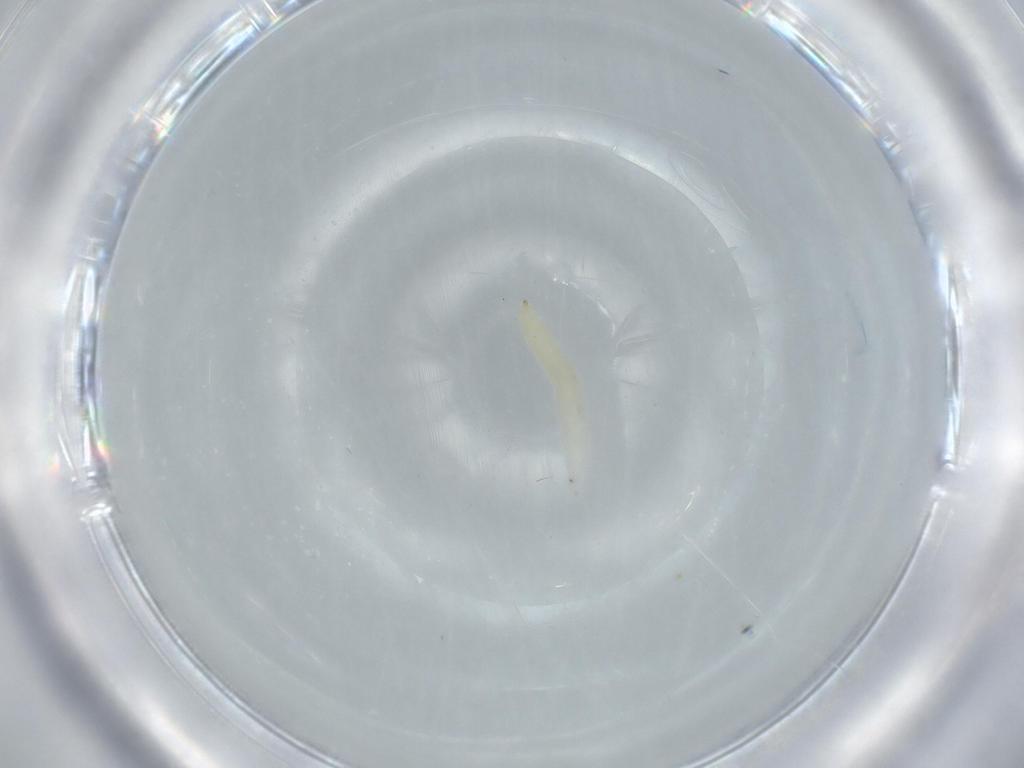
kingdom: Animalia
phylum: Arthropoda
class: Insecta
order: Diptera
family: Cecidomyiidae
